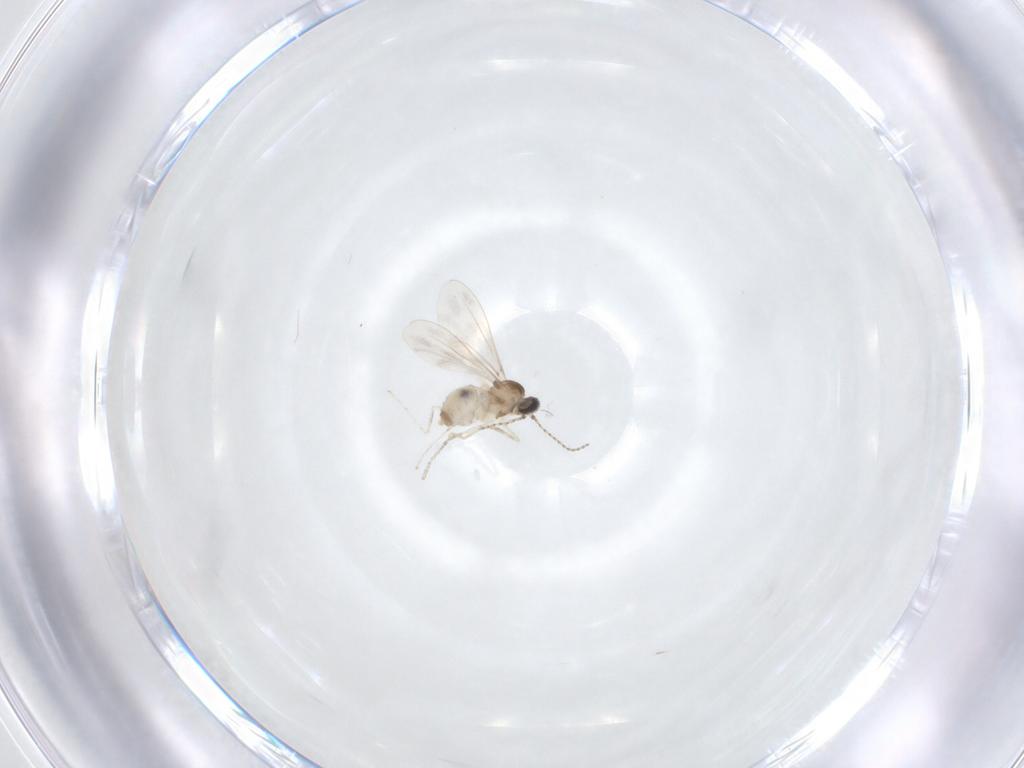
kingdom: Animalia
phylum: Arthropoda
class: Insecta
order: Diptera
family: Cecidomyiidae
